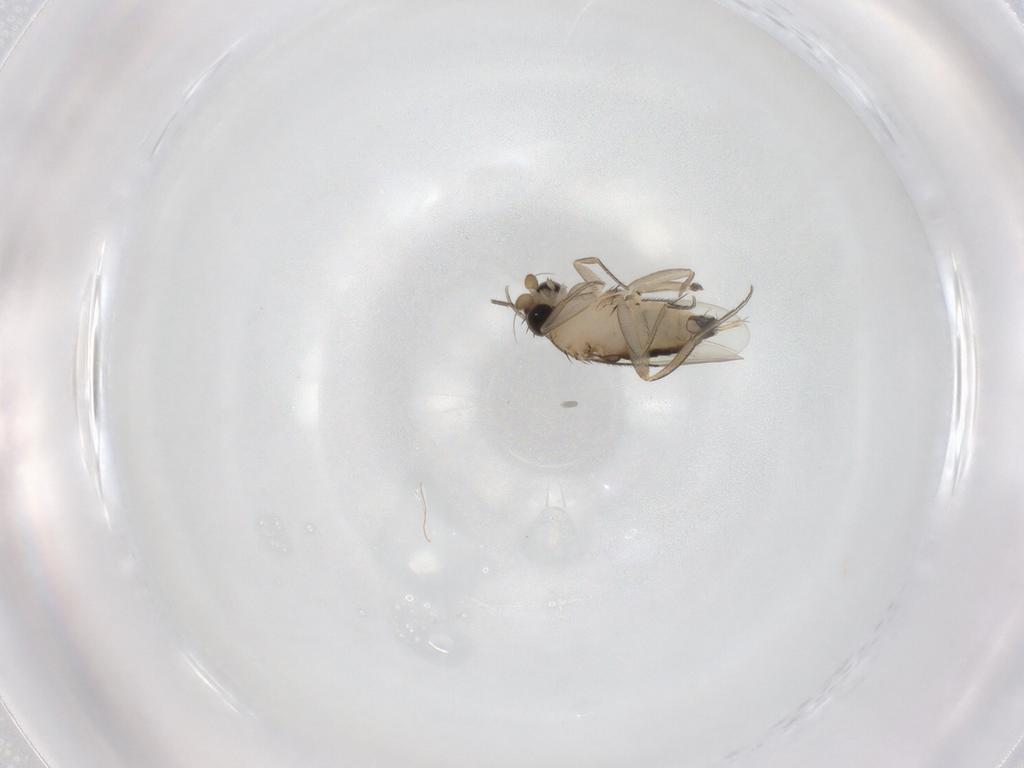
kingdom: Animalia
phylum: Arthropoda
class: Insecta
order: Diptera
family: Phoridae
